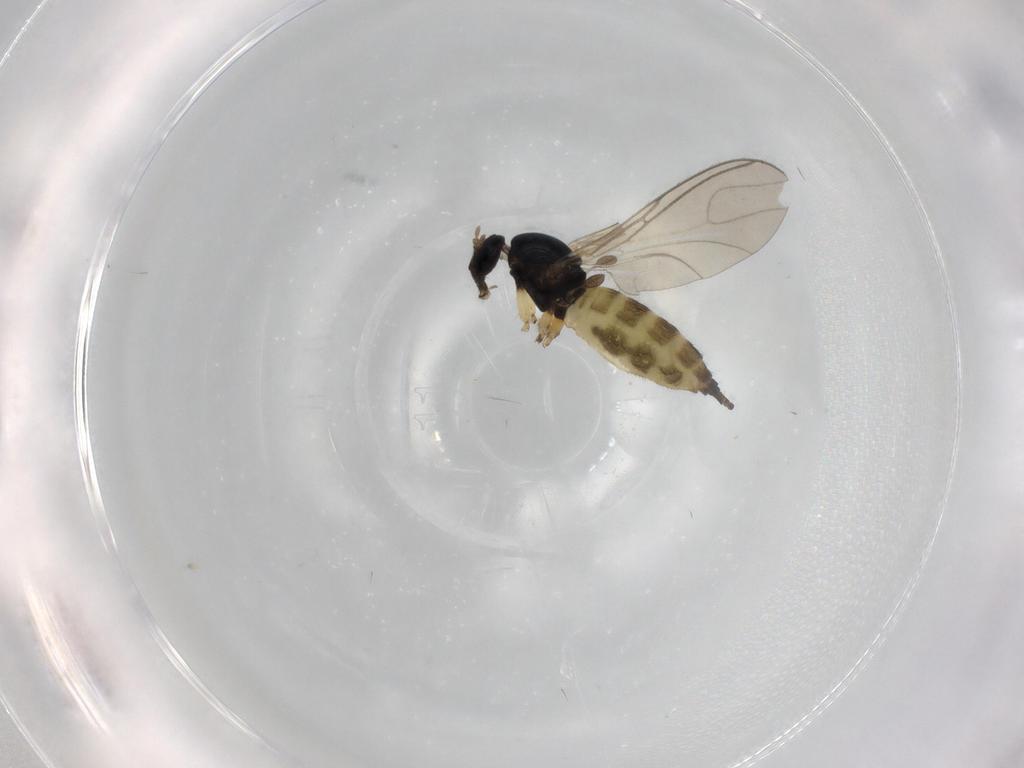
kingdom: Animalia
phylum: Arthropoda
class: Insecta
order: Diptera
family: Sciaridae
